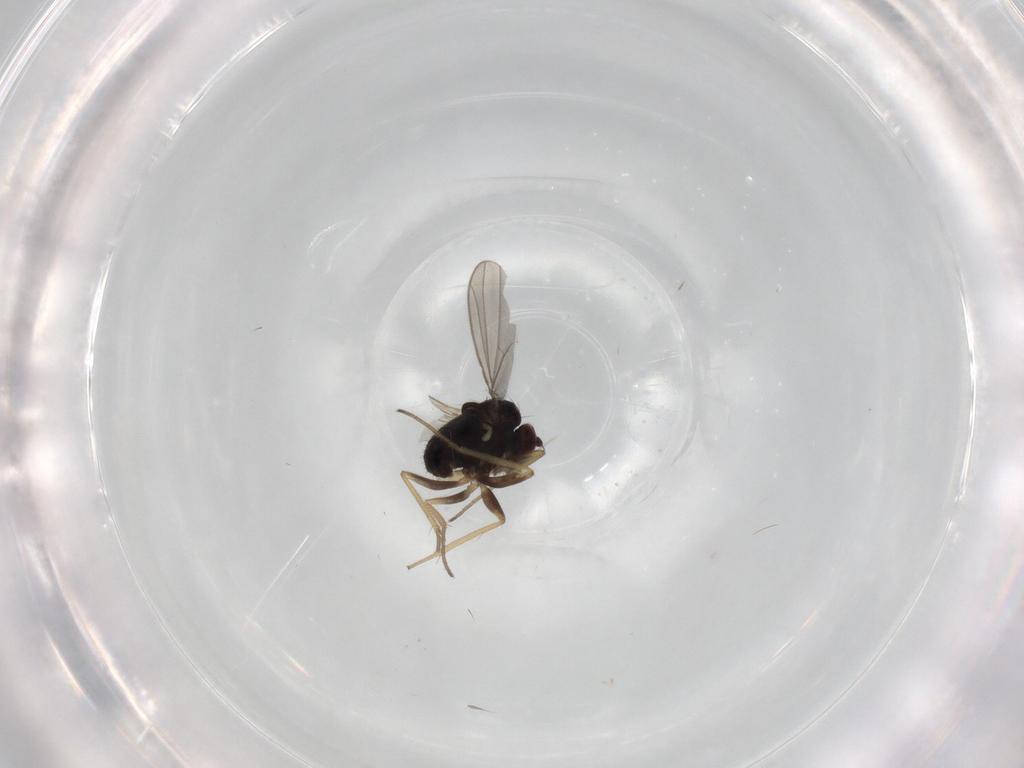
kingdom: Animalia
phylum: Arthropoda
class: Insecta
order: Diptera
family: Dolichopodidae
